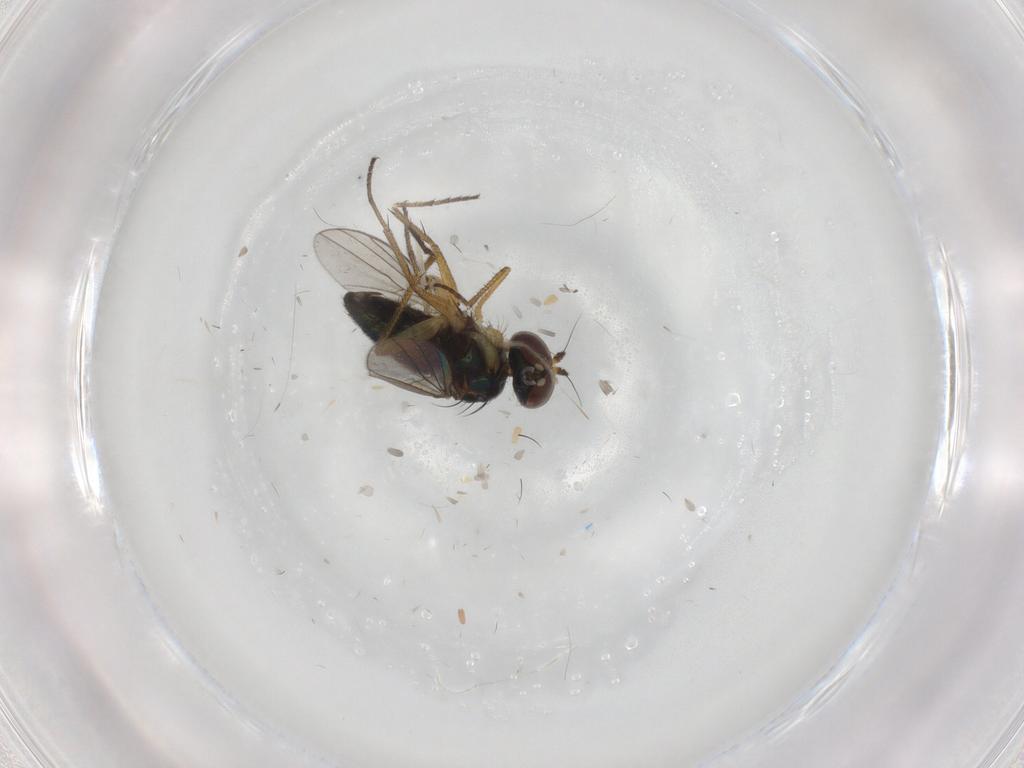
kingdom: Animalia
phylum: Arthropoda
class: Insecta
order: Diptera
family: Chironomidae
